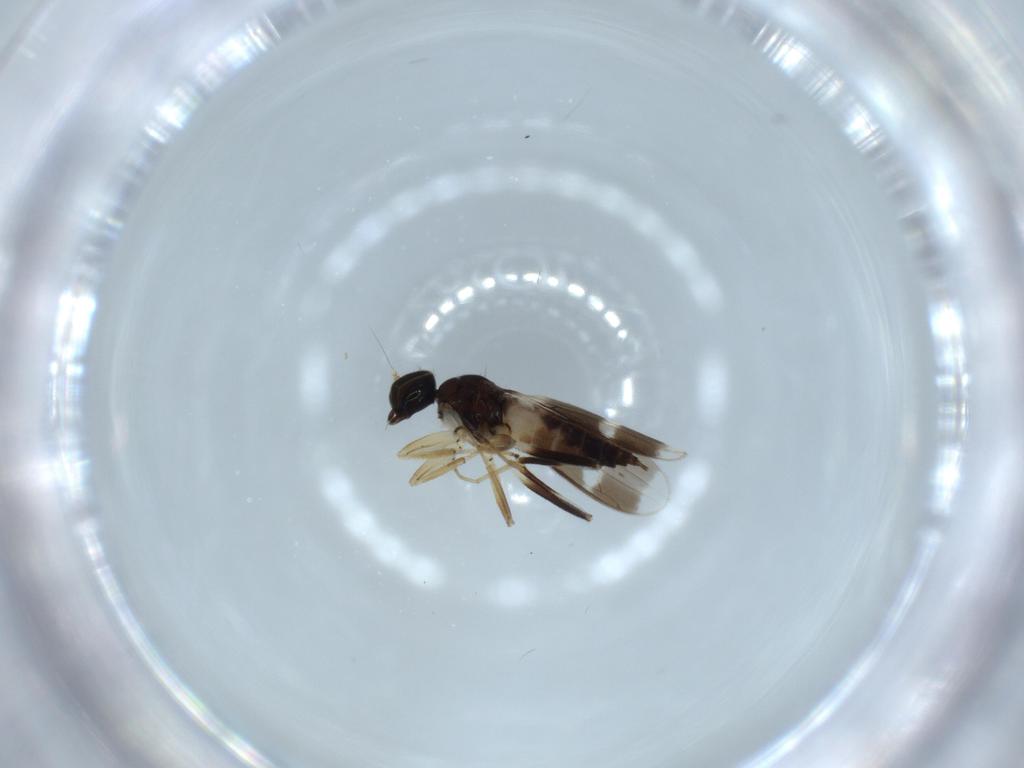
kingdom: Animalia
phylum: Arthropoda
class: Insecta
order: Diptera
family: Hybotidae
